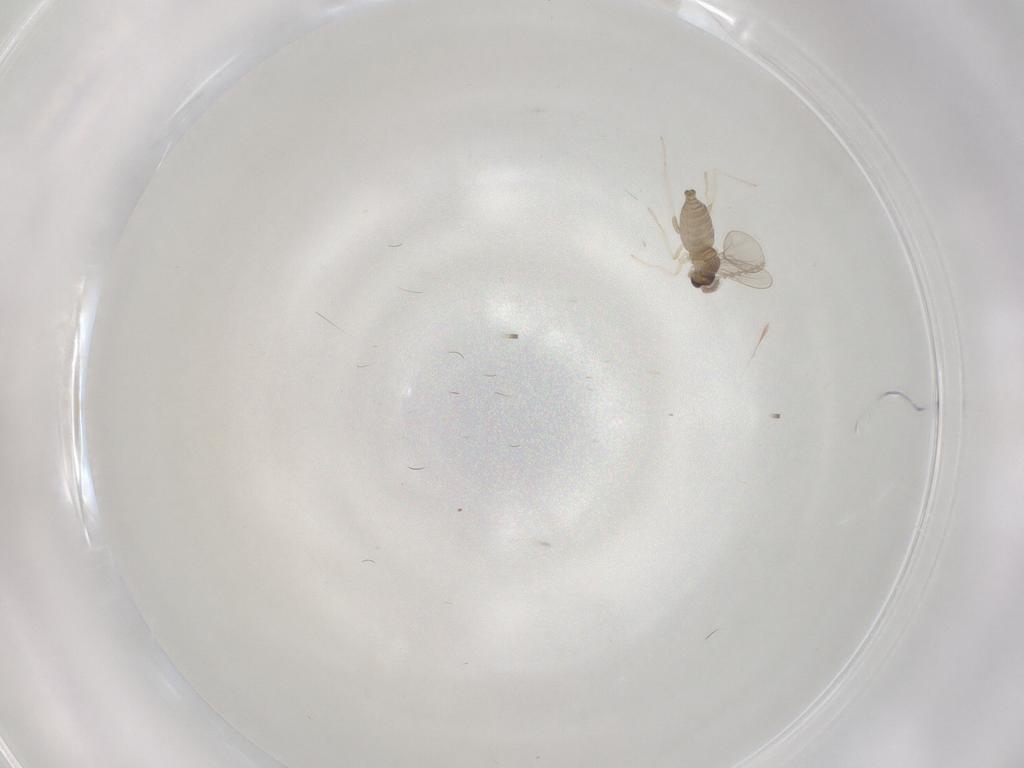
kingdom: Animalia
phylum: Arthropoda
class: Insecta
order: Diptera
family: Cecidomyiidae
